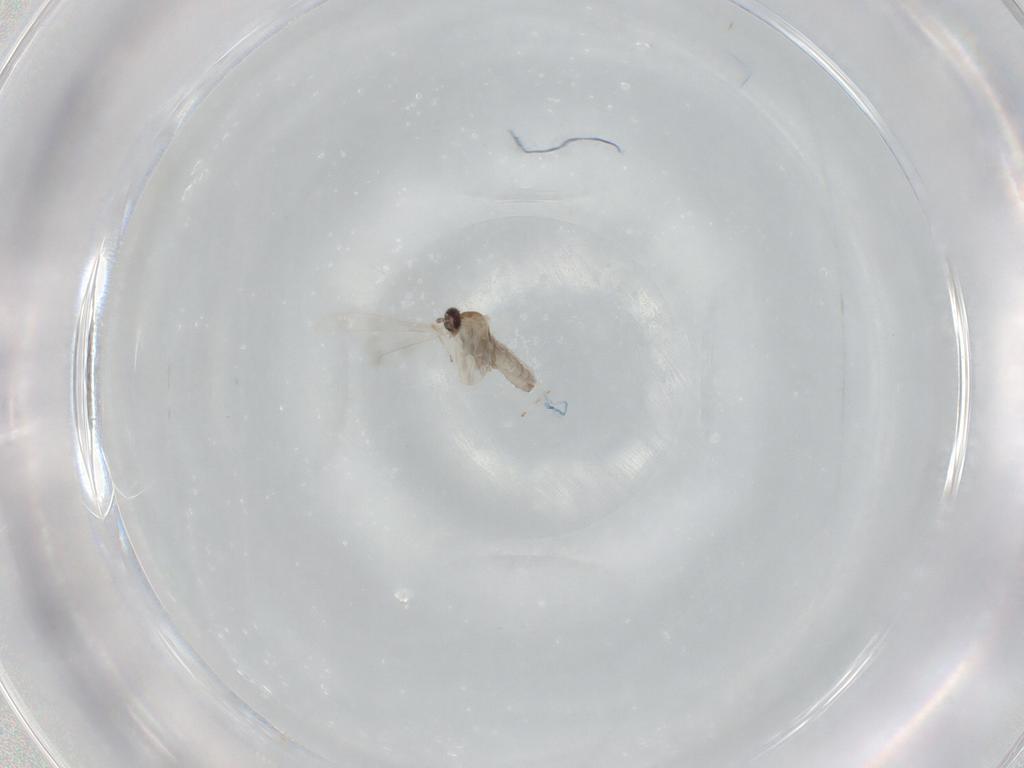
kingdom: Animalia
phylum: Arthropoda
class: Insecta
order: Diptera
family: Cecidomyiidae
